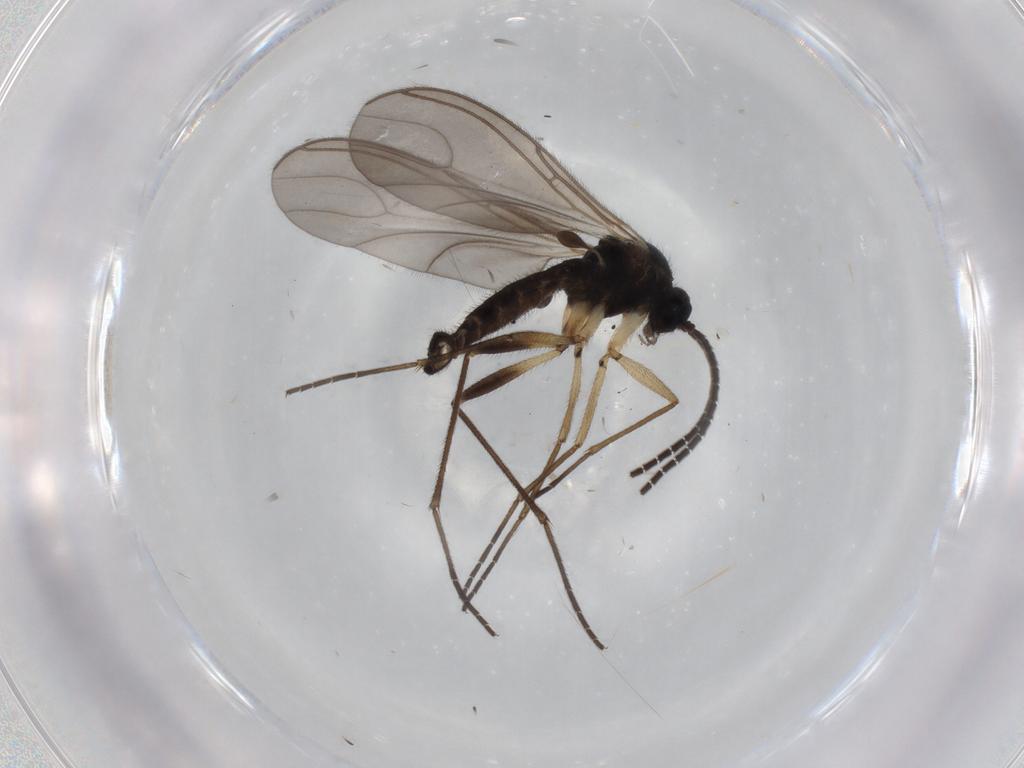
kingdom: Animalia
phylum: Arthropoda
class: Insecta
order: Diptera
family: Sciaridae
